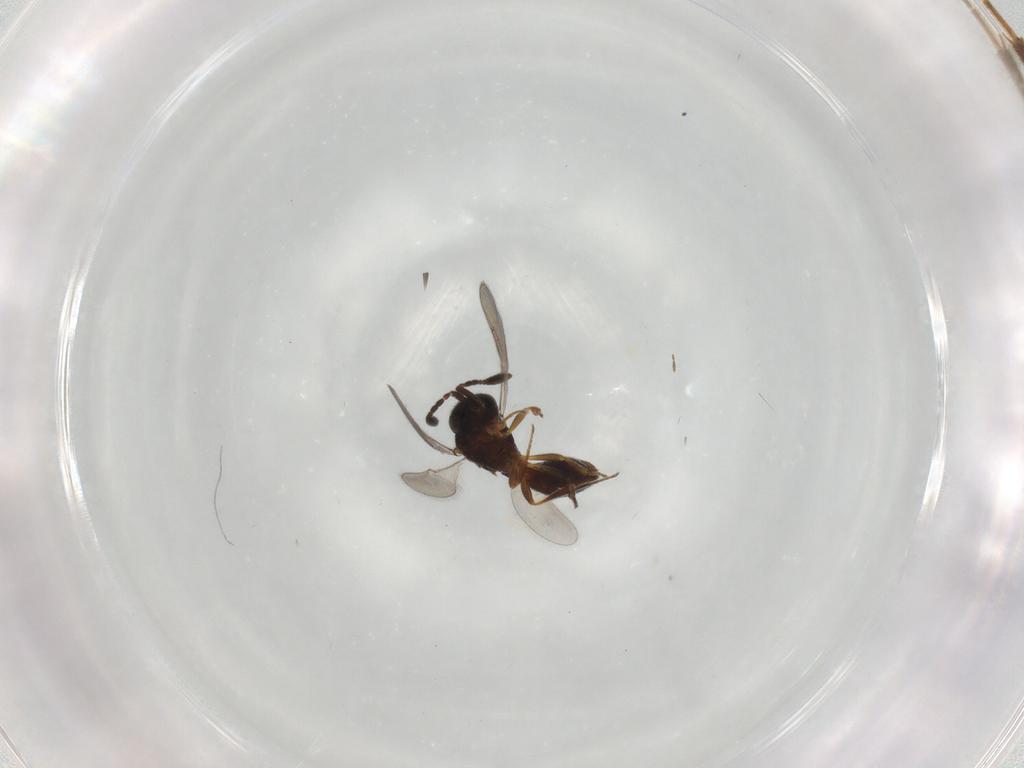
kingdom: Animalia
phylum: Arthropoda
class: Insecta
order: Hymenoptera
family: Scelionidae
